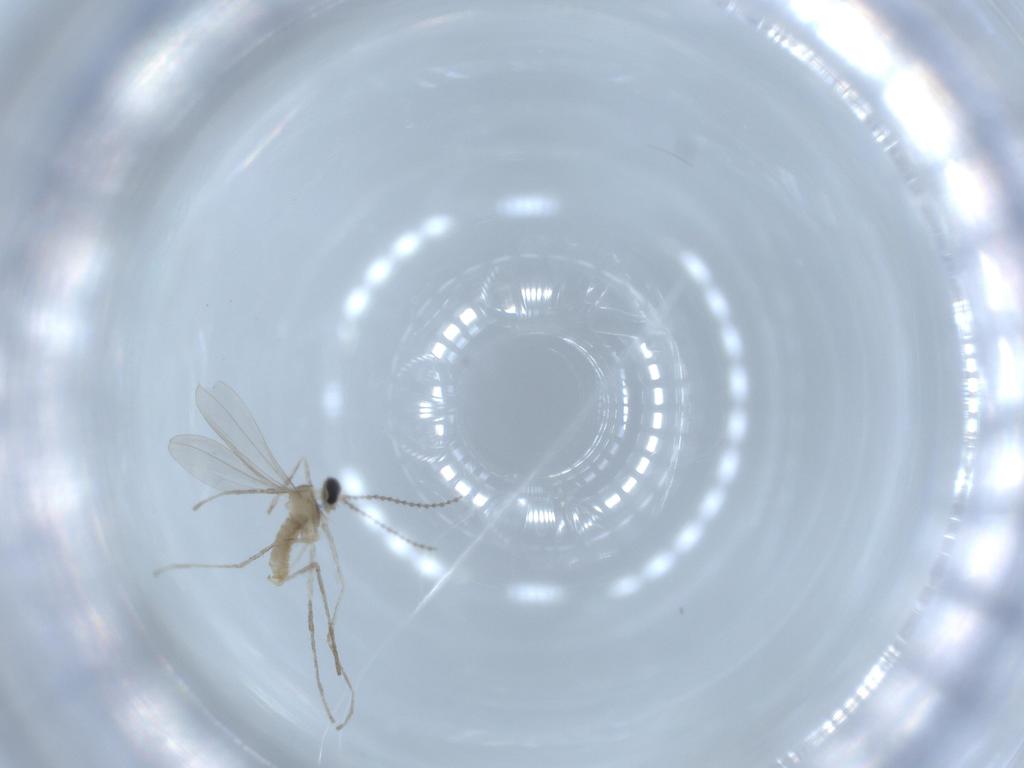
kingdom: Animalia
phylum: Arthropoda
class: Insecta
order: Diptera
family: Cecidomyiidae
